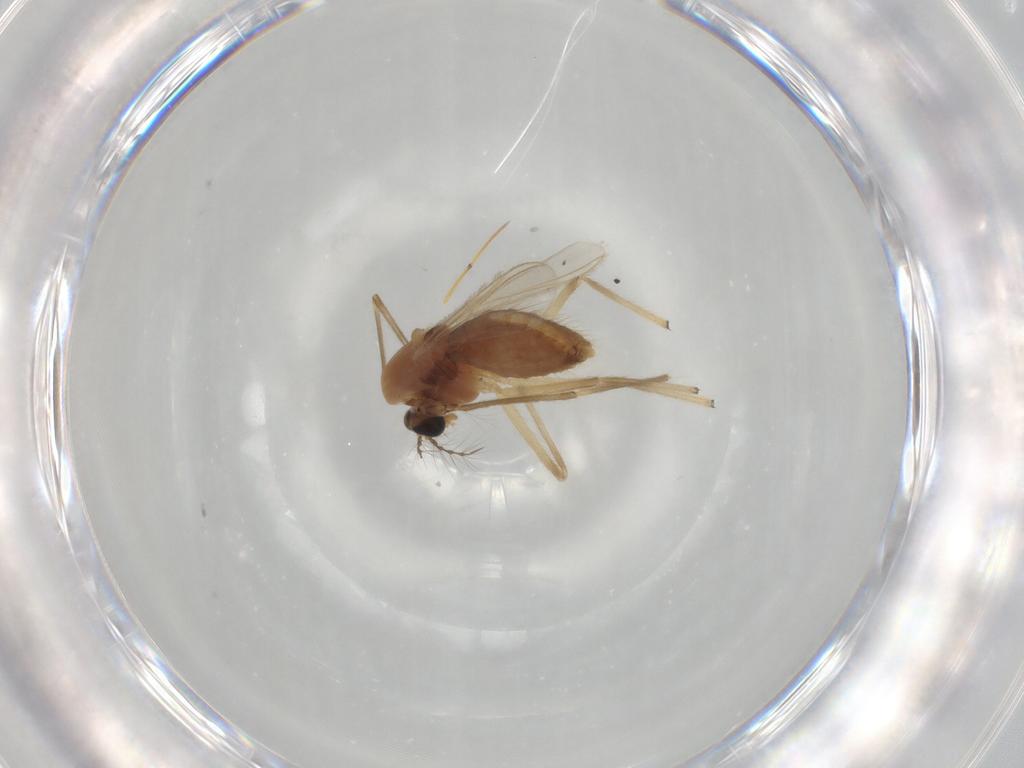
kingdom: Animalia
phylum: Arthropoda
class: Insecta
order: Diptera
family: Chironomidae
